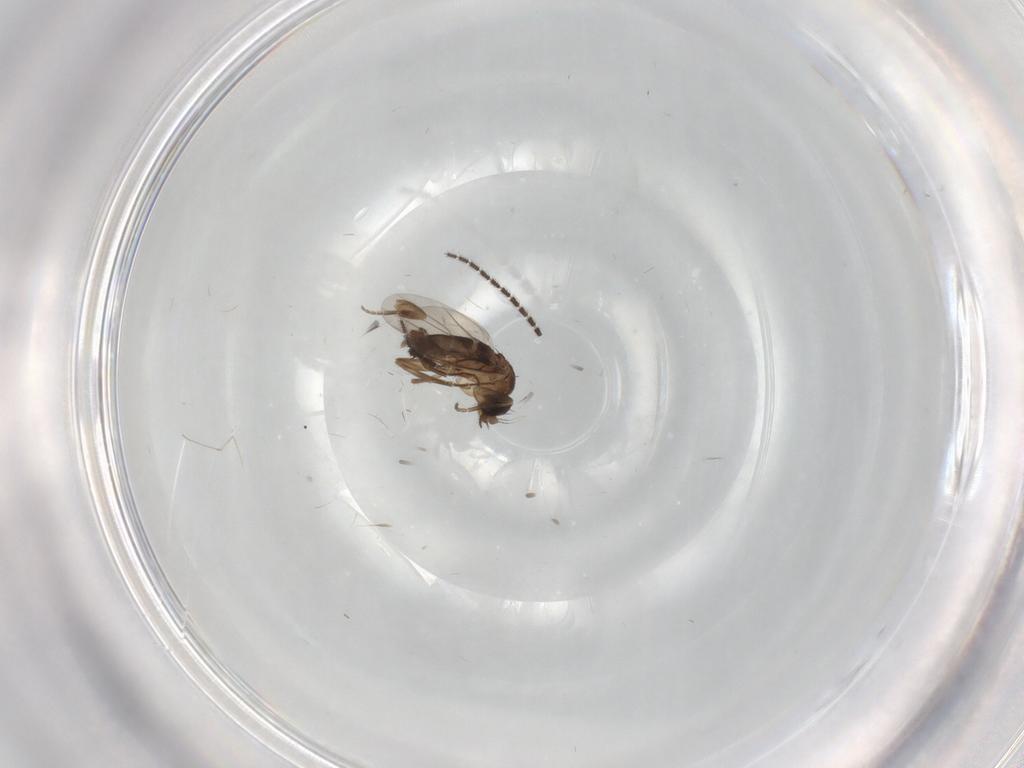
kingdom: Animalia
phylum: Arthropoda
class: Insecta
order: Diptera
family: Sciaridae
